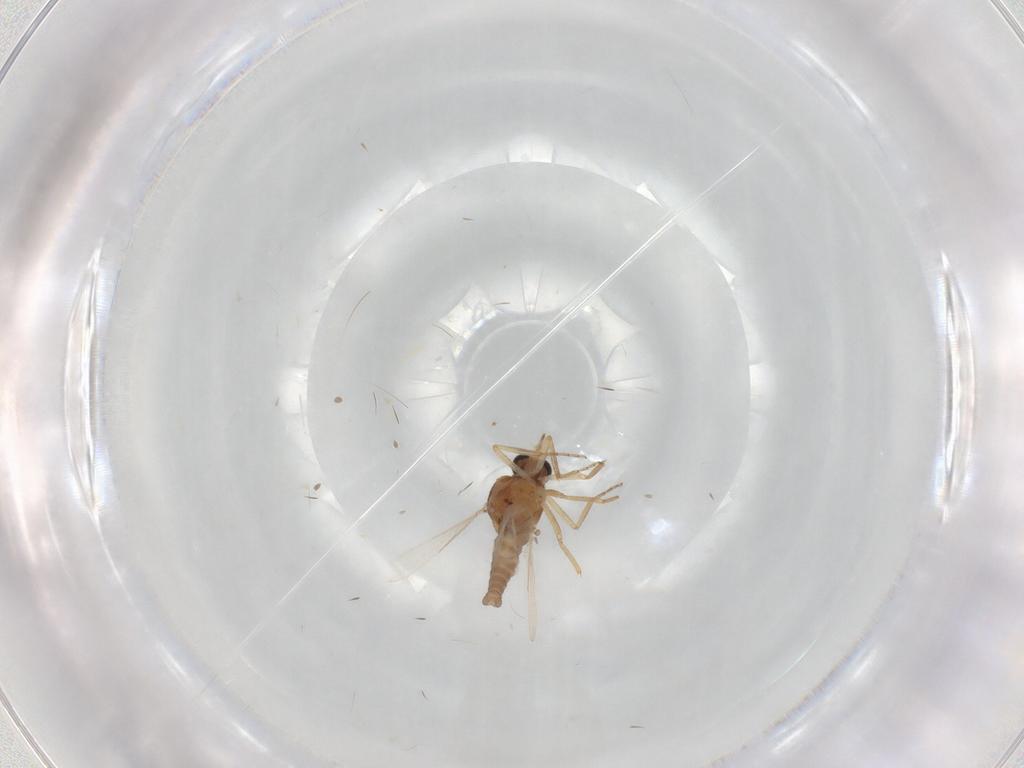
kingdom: Animalia
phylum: Arthropoda
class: Insecta
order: Diptera
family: Ceratopogonidae
